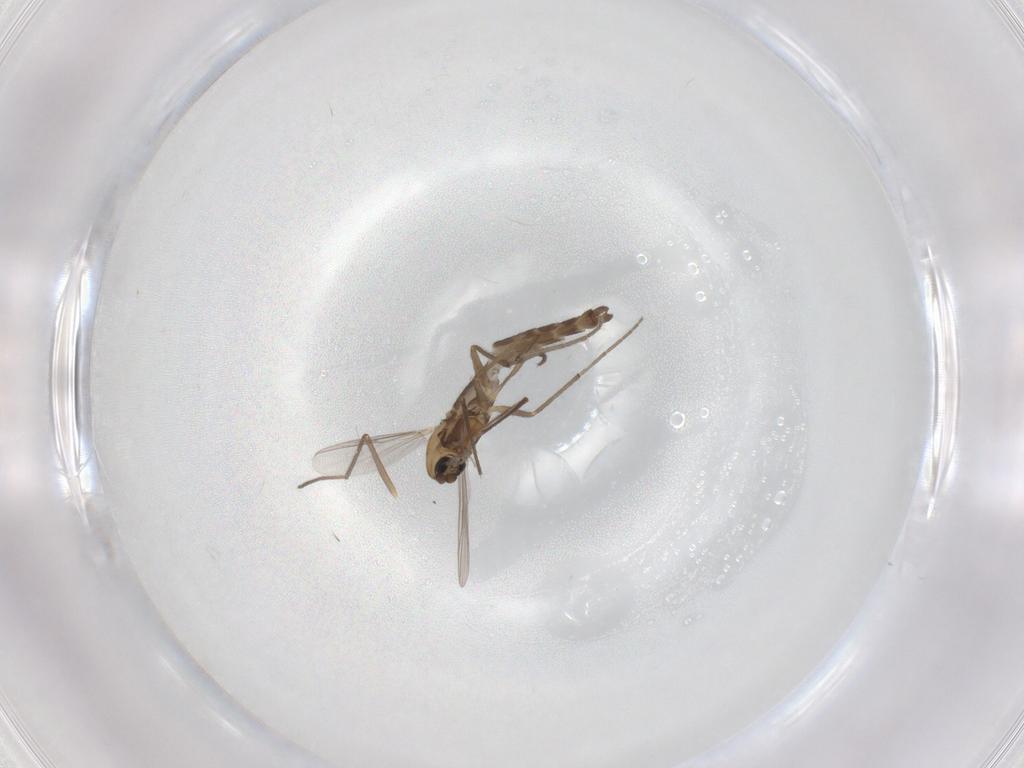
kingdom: Animalia
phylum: Arthropoda
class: Insecta
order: Diptera
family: Chironomidae
